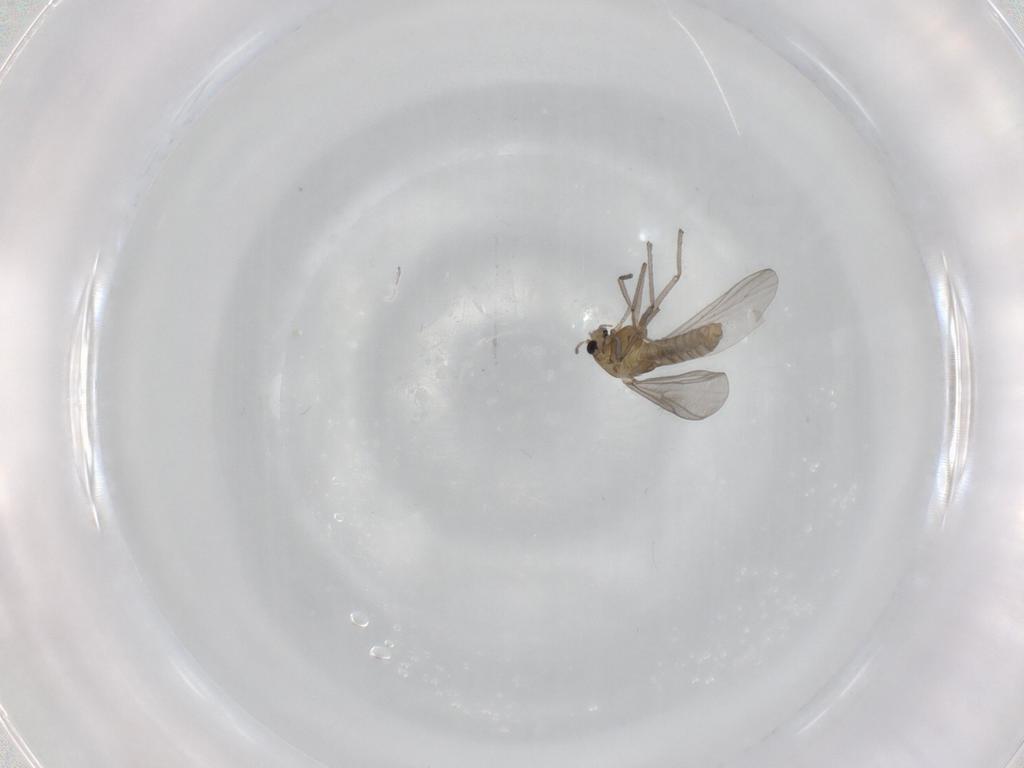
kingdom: Animalia
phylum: Arthropoda
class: Insecta
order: Diptera
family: Chironomidae
